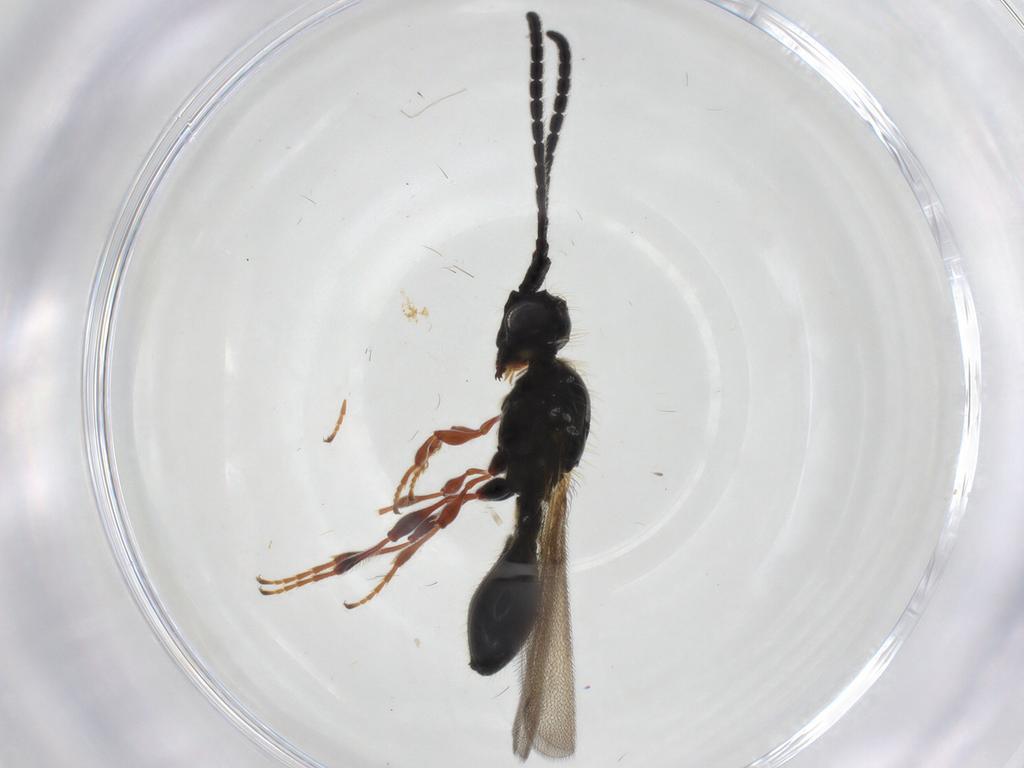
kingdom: Animalia
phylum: Arthropoda
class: Insecta
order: Hymenoptera
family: Diapriidae
